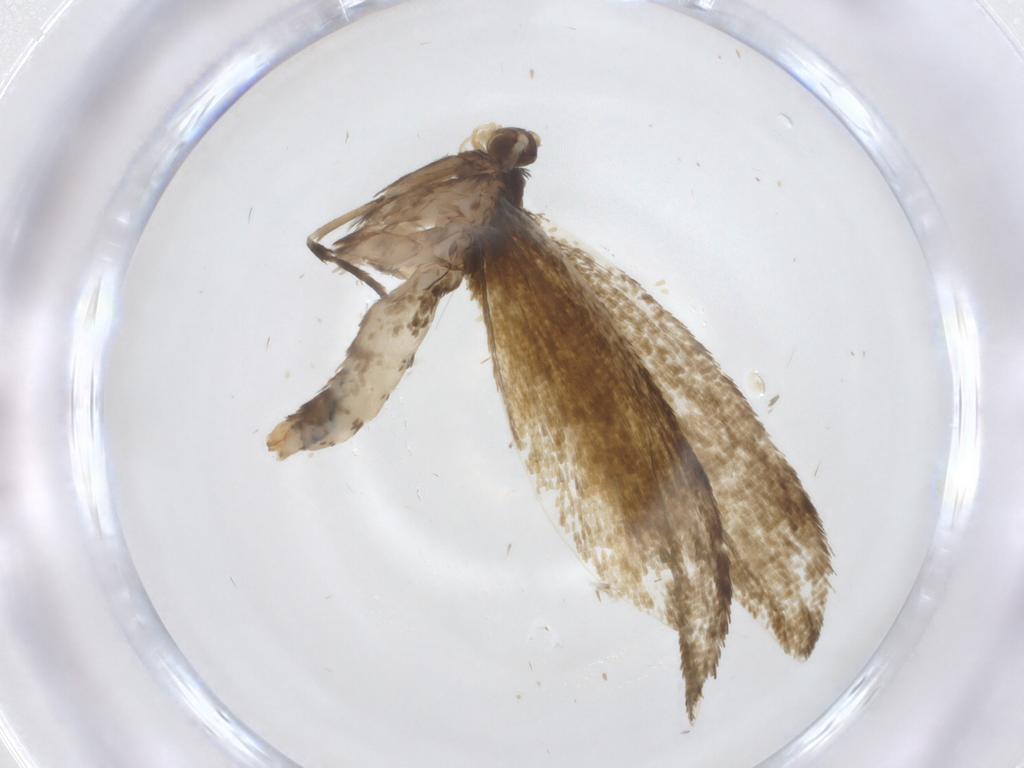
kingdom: Animalia
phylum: Arthropoda
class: Insecta
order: Lepidoptera
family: Tineidae
